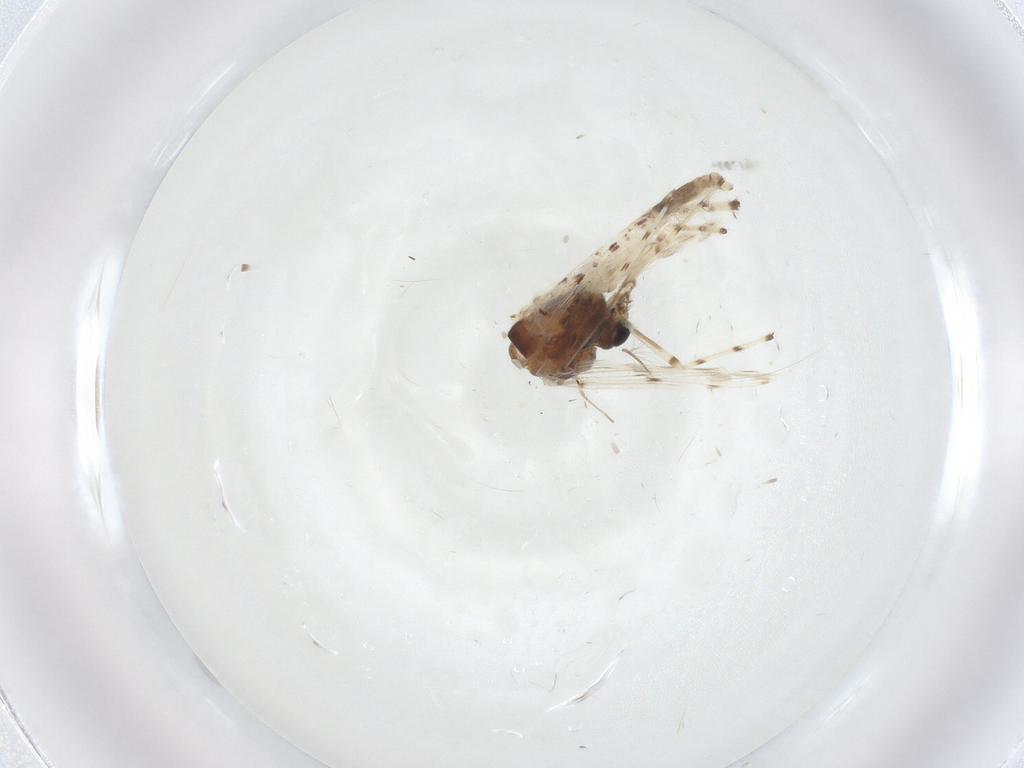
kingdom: Animalia
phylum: Arthropoda
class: Insecta
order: Diptera
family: Chironomidae
